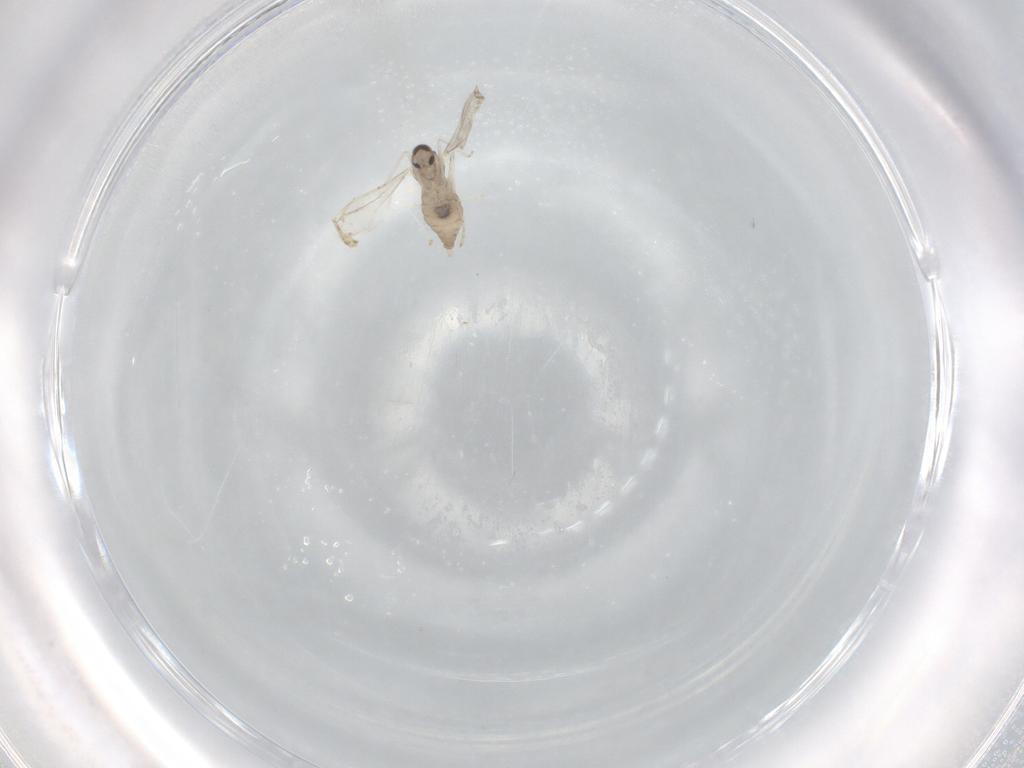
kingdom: Animalia
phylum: Arthropoda
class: Insecta
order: Diptera
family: Cecidomyiidae
